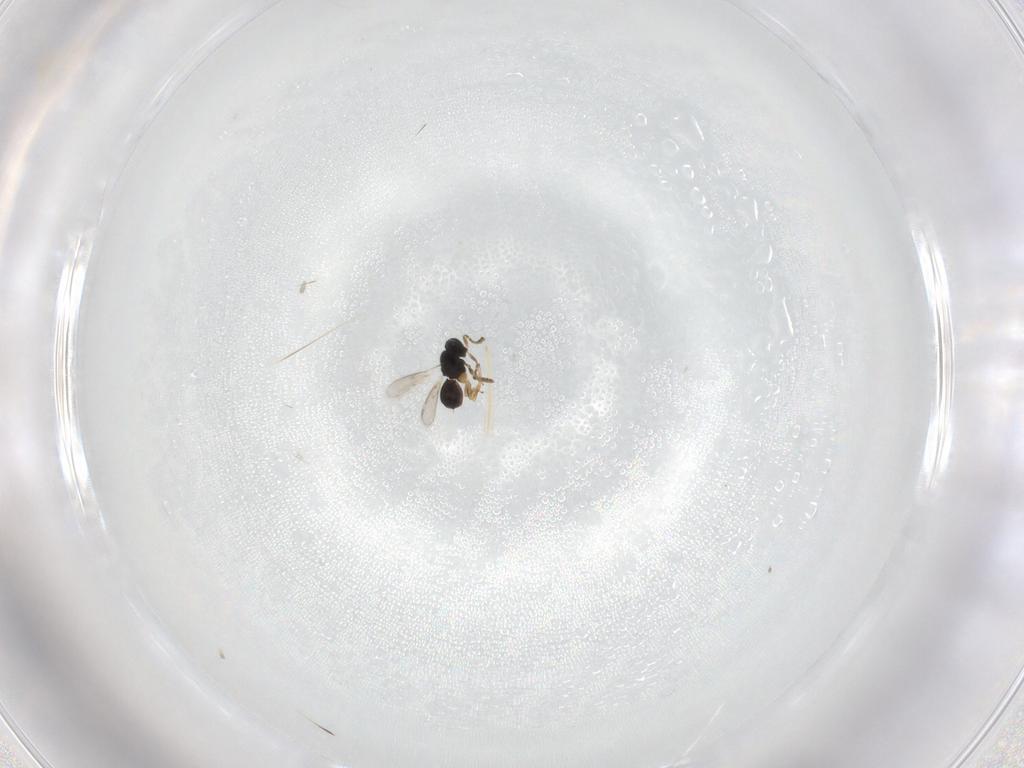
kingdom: Animalia
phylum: Arthropoda
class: Insecta
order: Hymenoptera
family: Scelionidae
